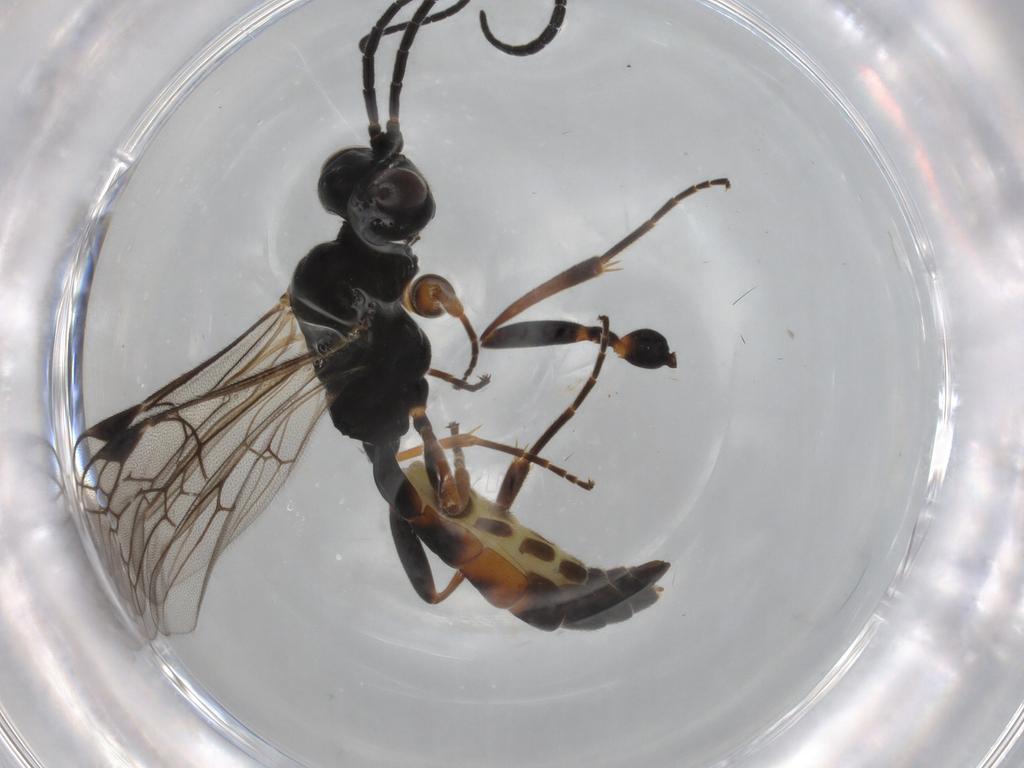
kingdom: Animalia
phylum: Arthropoda
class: Insecta
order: Hymenoptera
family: Ichneumonidae
